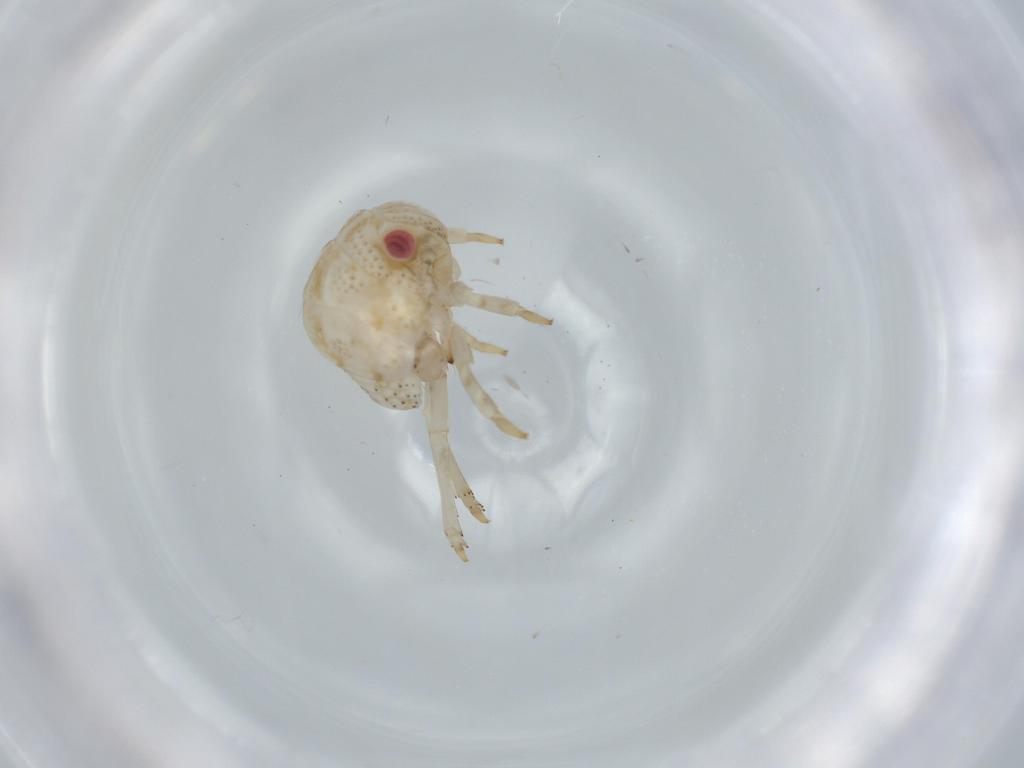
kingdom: Animalia
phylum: Arthropoda
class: Insecta
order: Hemiptera
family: Acanaloniidae
